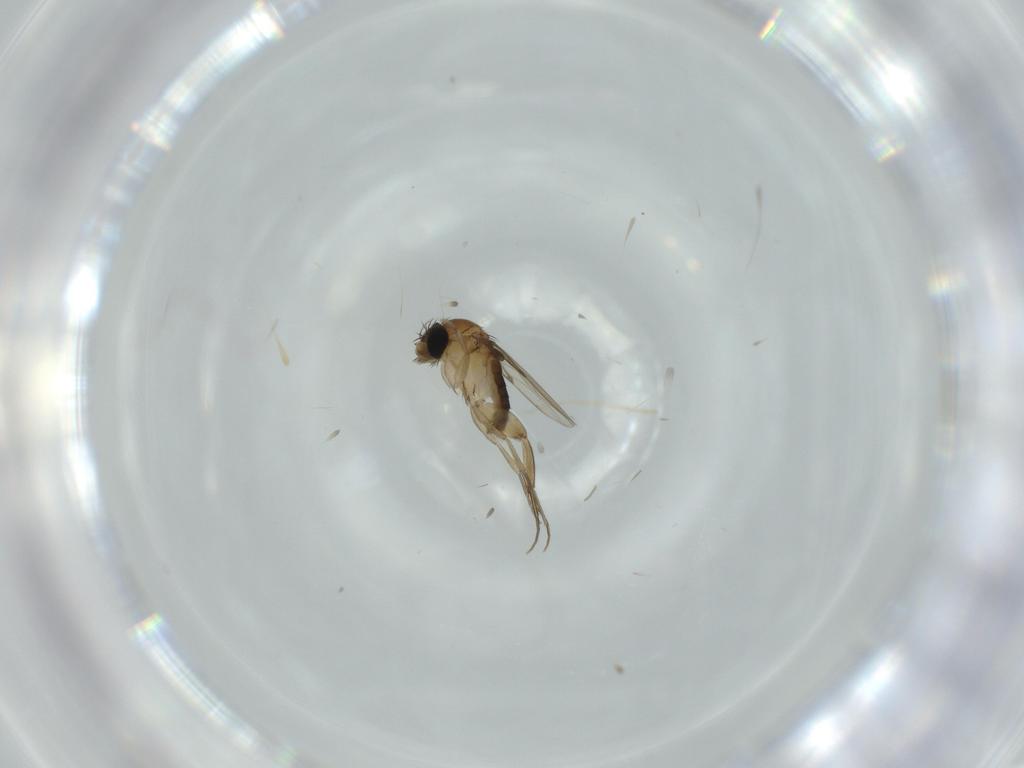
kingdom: Animalia
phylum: Arthropoda
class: Insecta
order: Diptera
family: Phoridae
